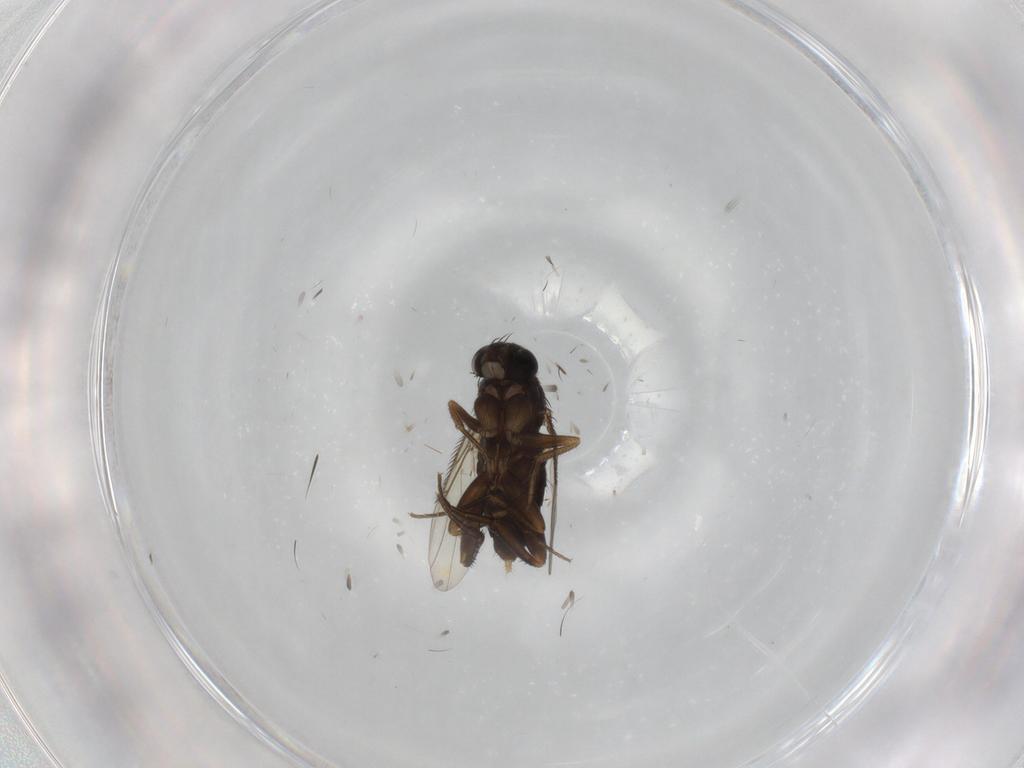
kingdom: Animalia
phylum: Arthropoda
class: Insecta
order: Diptera
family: Phoridae
